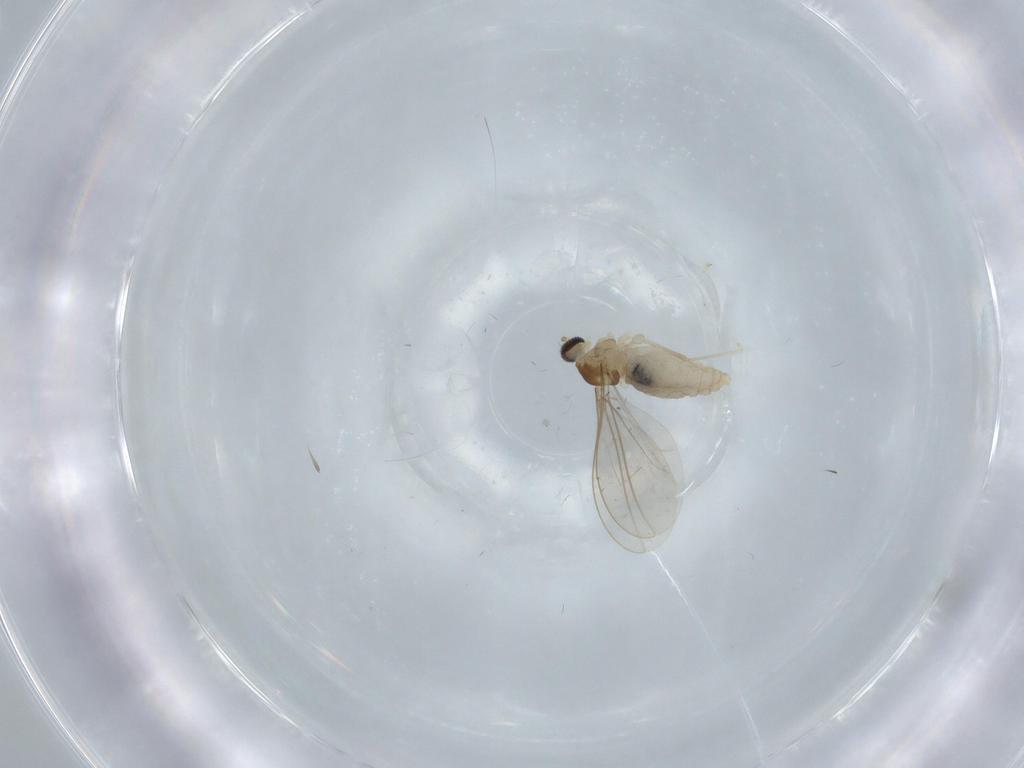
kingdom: Animalia
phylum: Arthropoda
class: Insecta
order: Diptera
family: Cecidomyiidae
